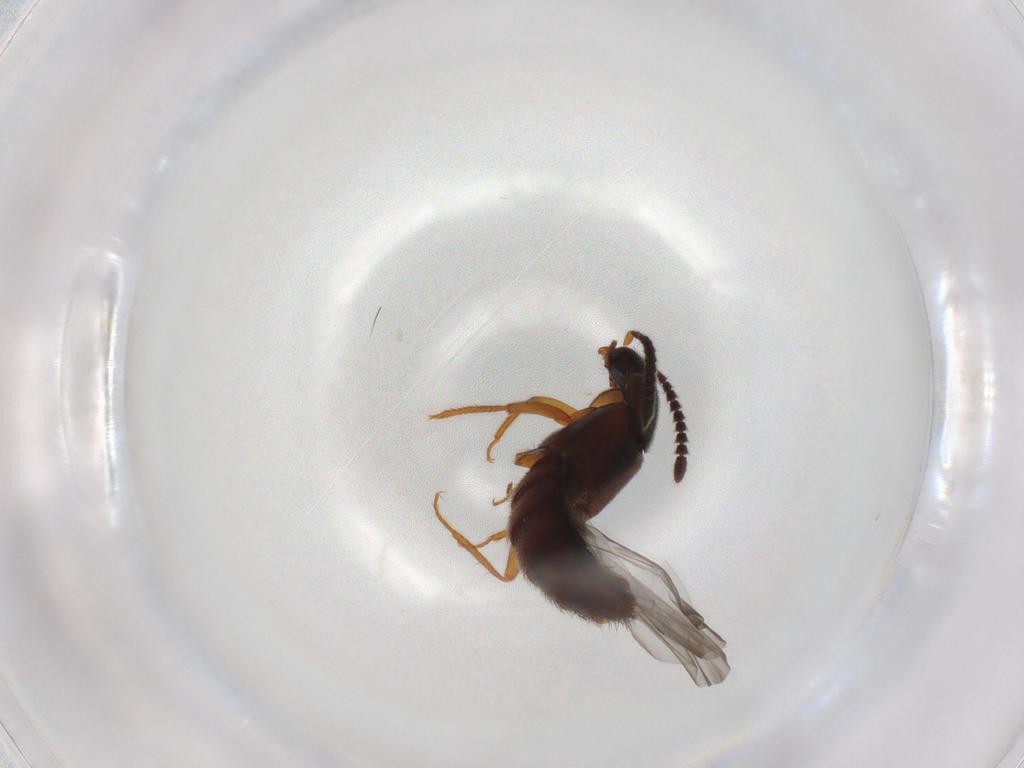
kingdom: Animalia
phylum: Arthropoda
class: Insecta
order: Coleoptera
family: Staphylinidae
